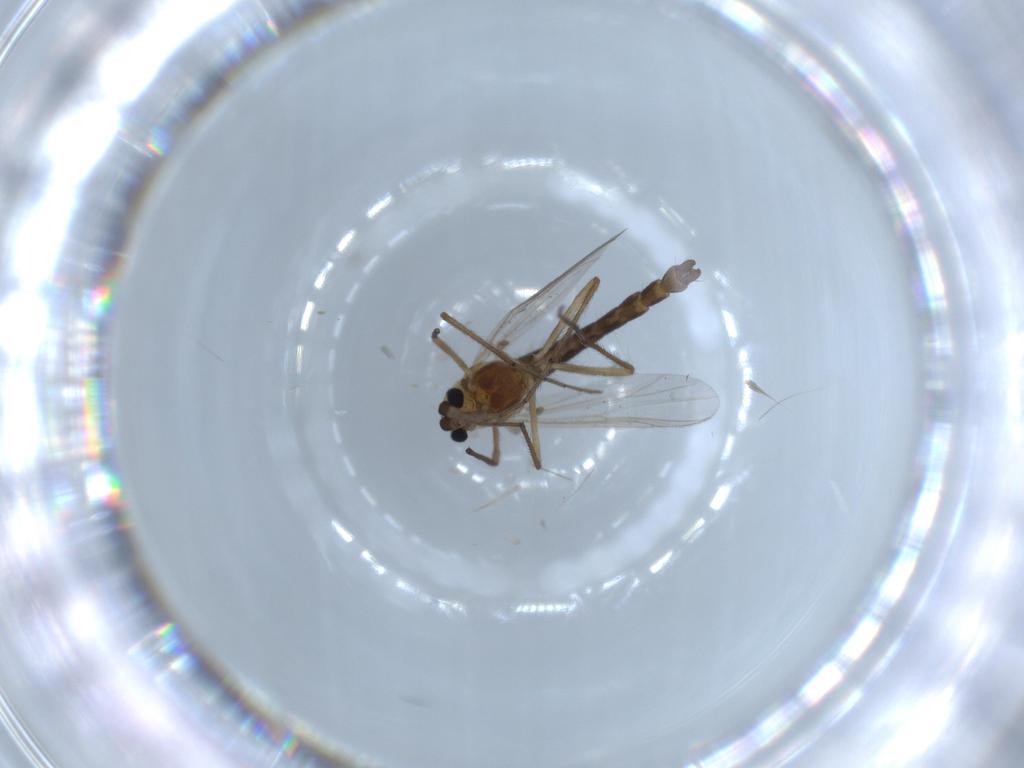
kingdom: Animalia
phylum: Arthropoda
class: Insecta
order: Diptera
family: Chironomidae
